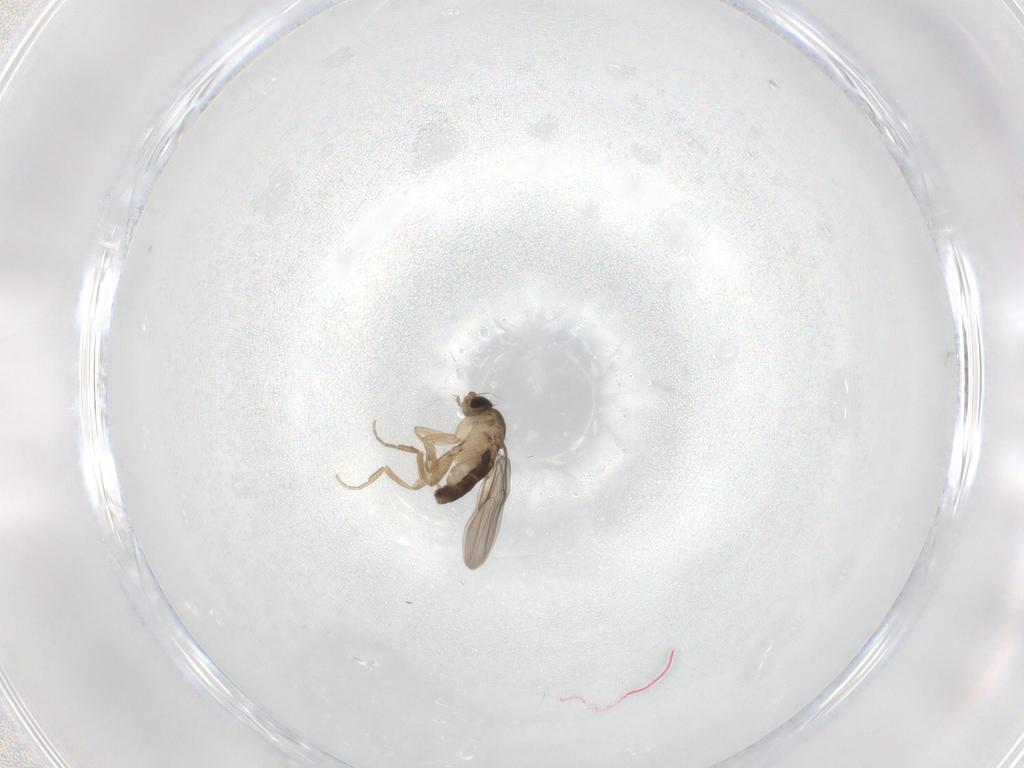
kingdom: Animalia
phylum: Arthropoda
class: Insecta
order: Diptera
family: Phoridae
